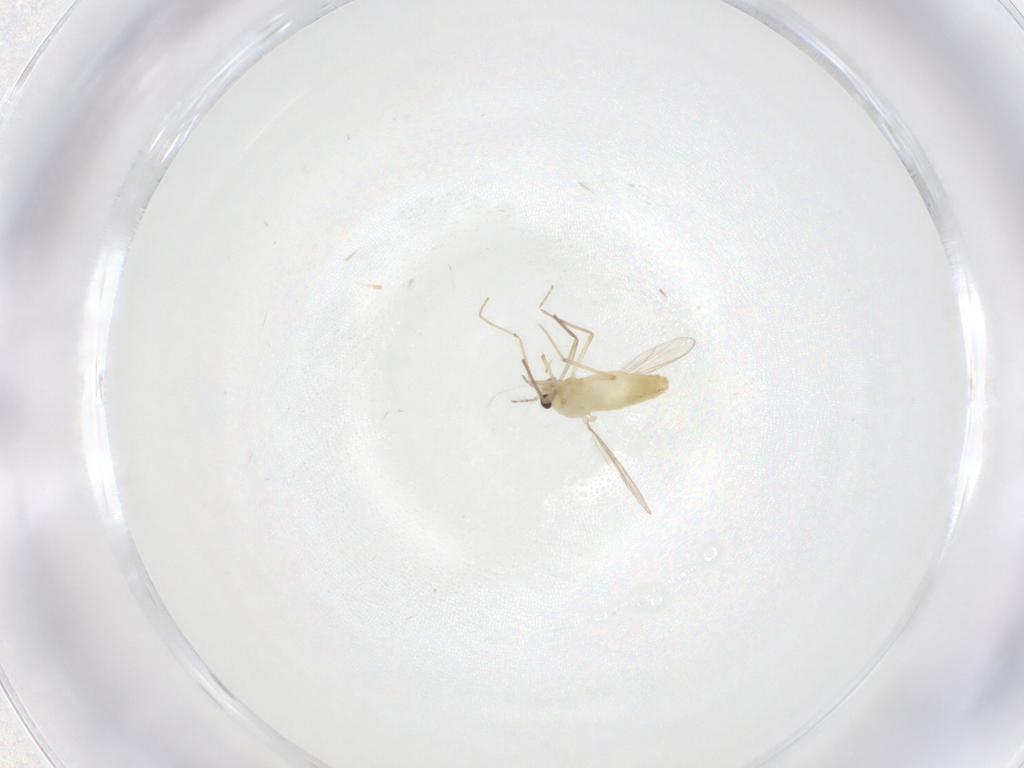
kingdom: Animalia
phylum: Arthropoda
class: Insecta
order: Diptera
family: Chironomidae
